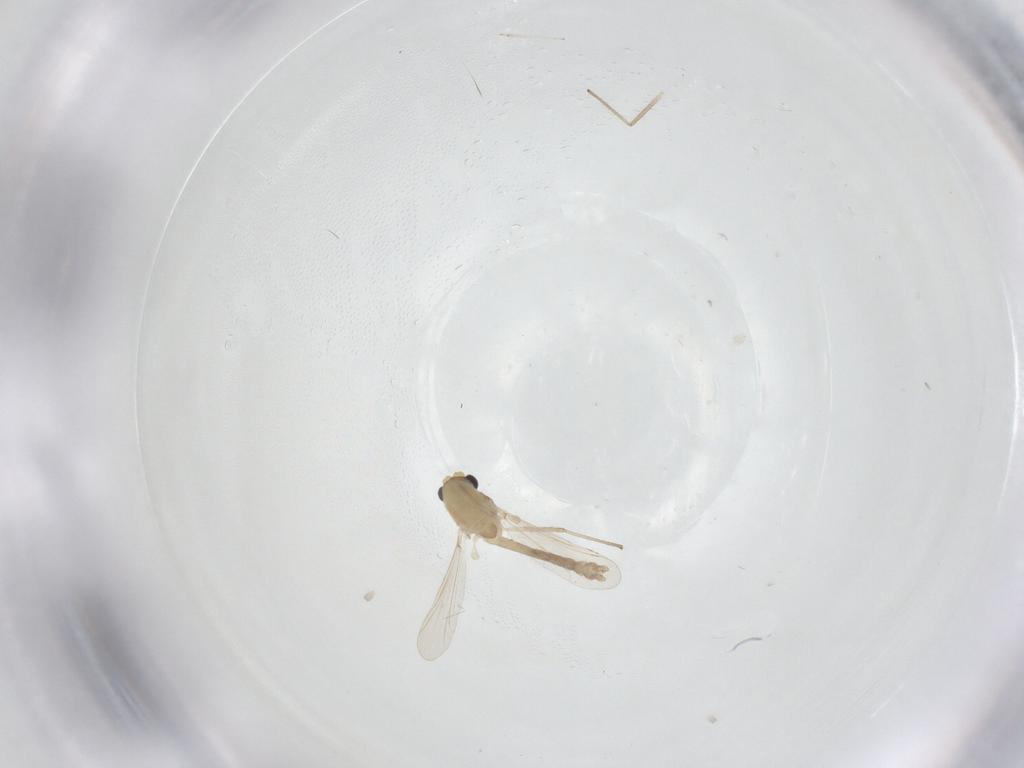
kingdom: Animalia
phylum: Arthropoda
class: Insecta
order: Diptera
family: Chironomidae
